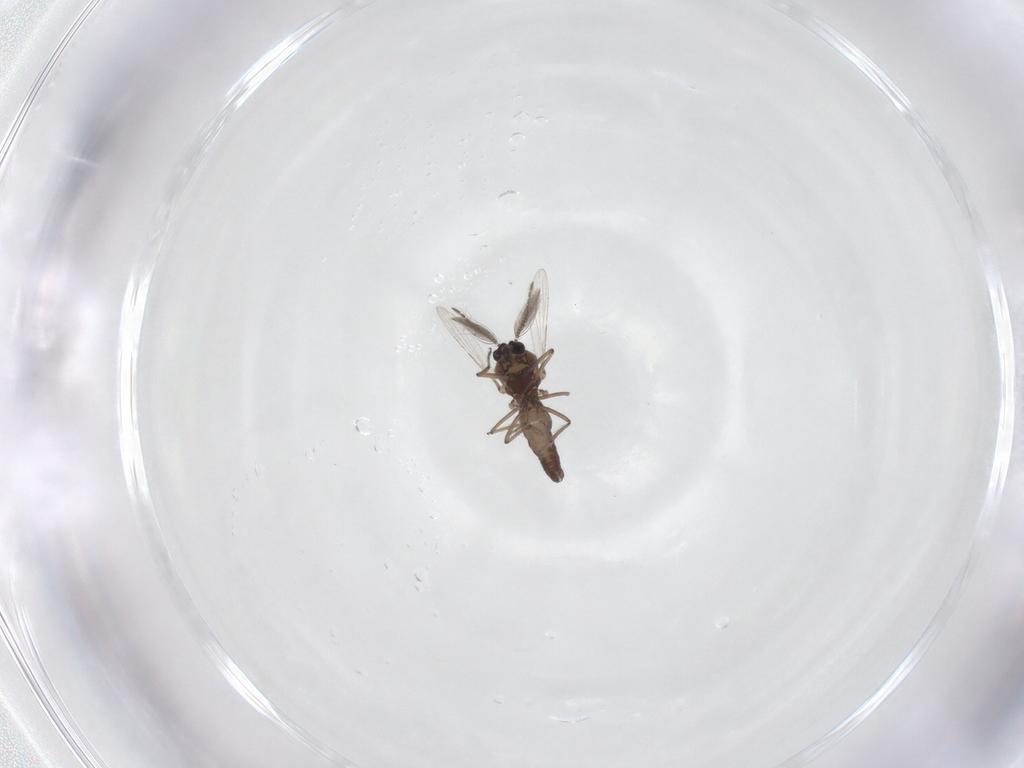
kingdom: Animalia
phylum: Arthropoda
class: Insecta
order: Diptera
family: Ceratopogonidae
